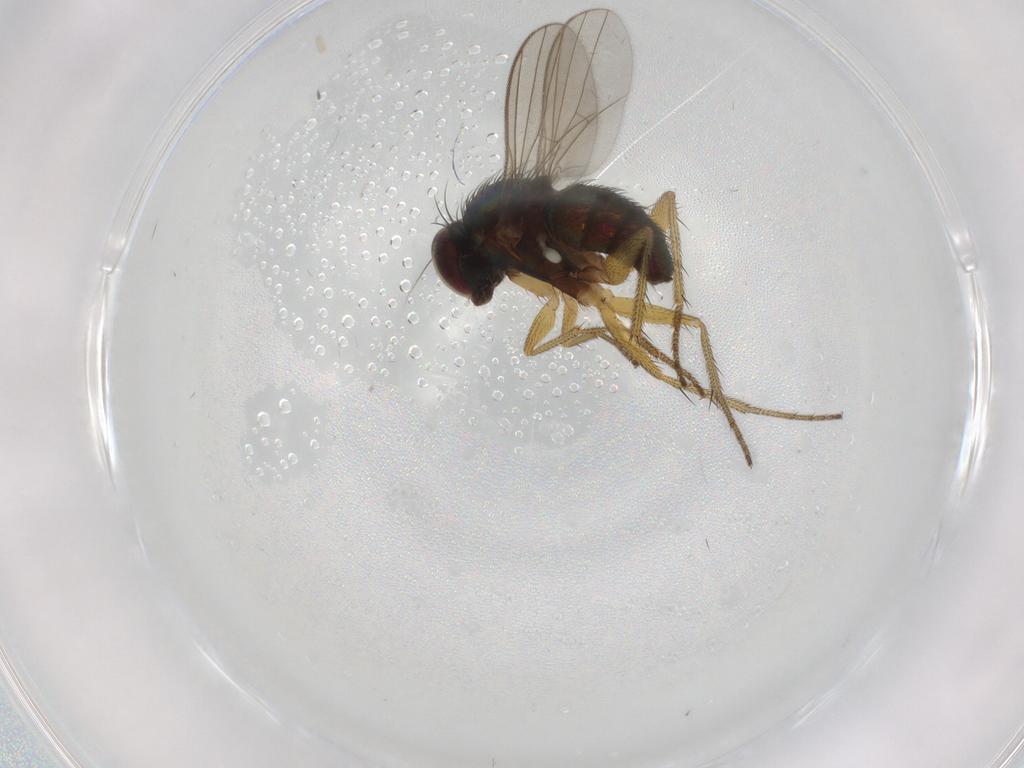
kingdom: Animalia
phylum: Arthropoda
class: Insecta
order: Diptera
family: Dolichopodidae
